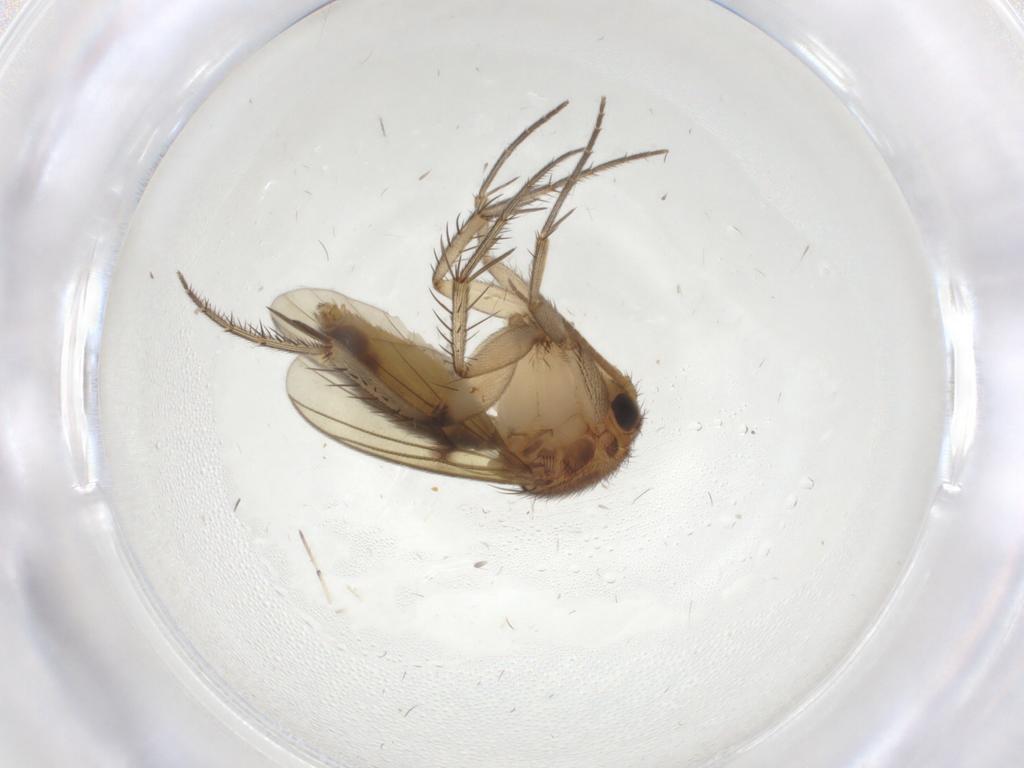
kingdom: Animalia
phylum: Arthropoda
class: Insecta
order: Diptera
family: Mycetophilidae
